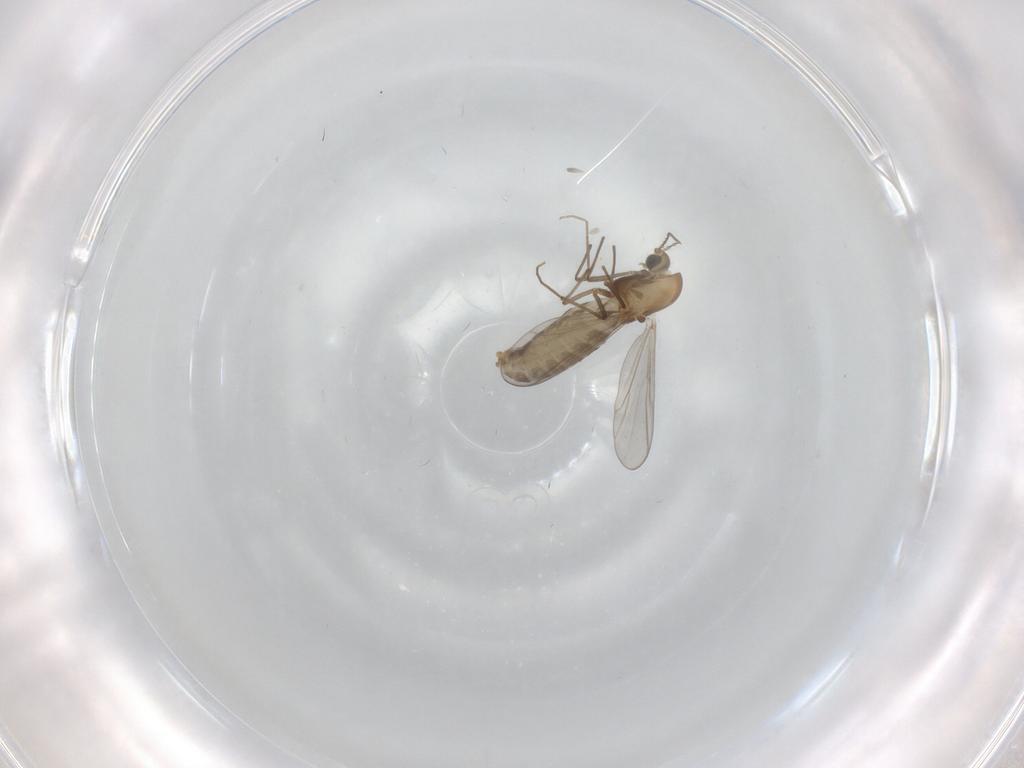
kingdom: Animalia
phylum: Arthropoda
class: Insecta
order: Diptera
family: Chironomidae
